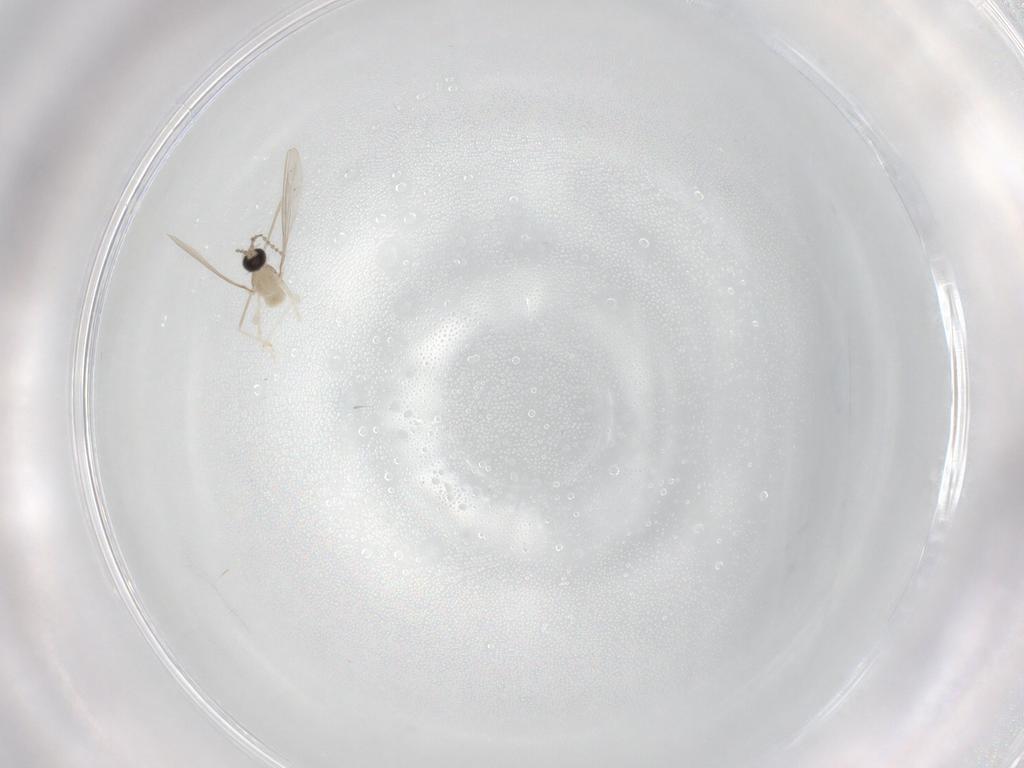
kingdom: Animalia
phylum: Arthropoda
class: Insecta
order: Diptera
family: Cecidomyiidae
